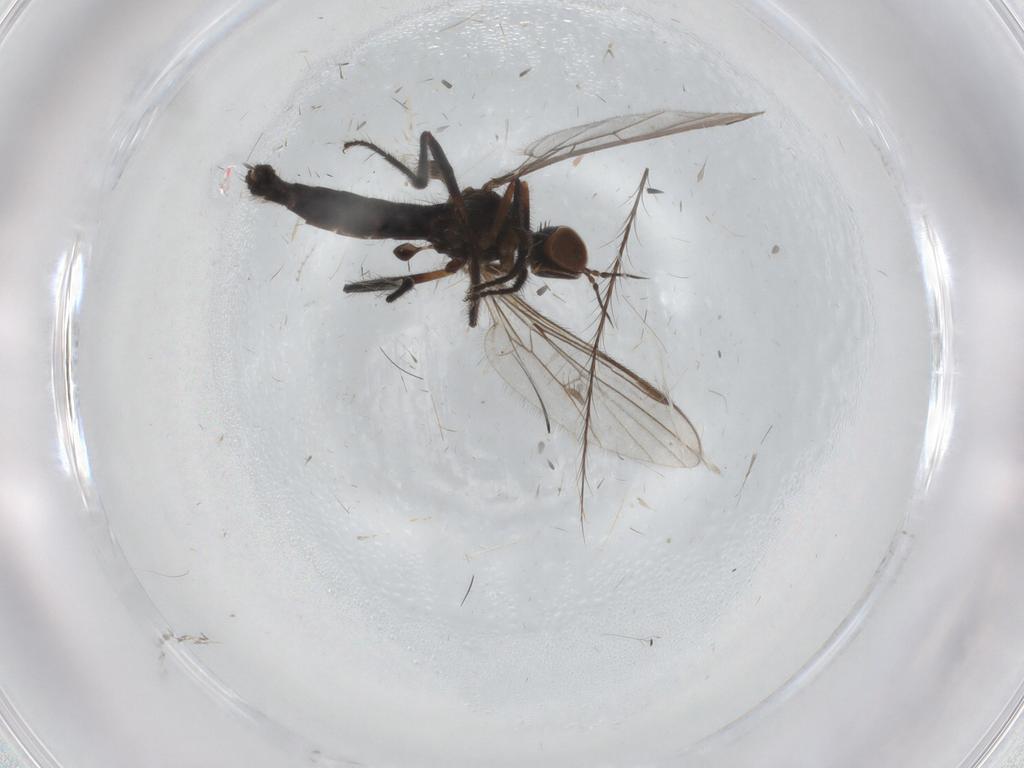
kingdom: Animalia
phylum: Arthropoda
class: Insecta
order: Diptera
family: Empididae
